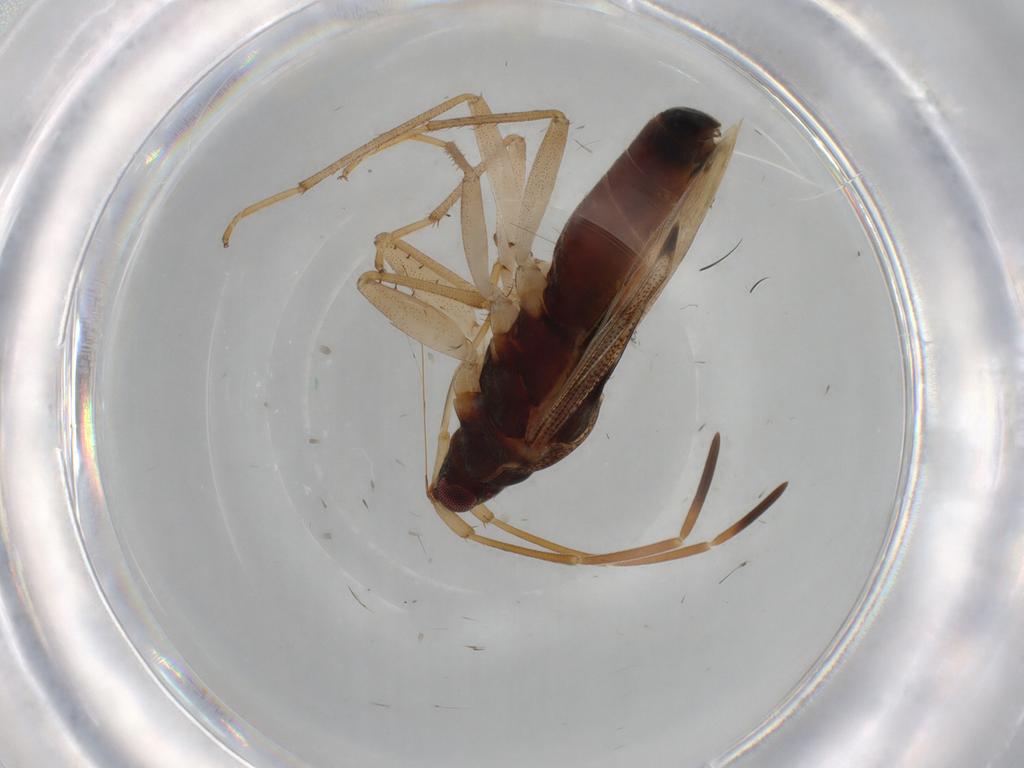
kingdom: Animalia
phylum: Arthropoda
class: Insecta
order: Hemiptera
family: Rhyparochromidae
